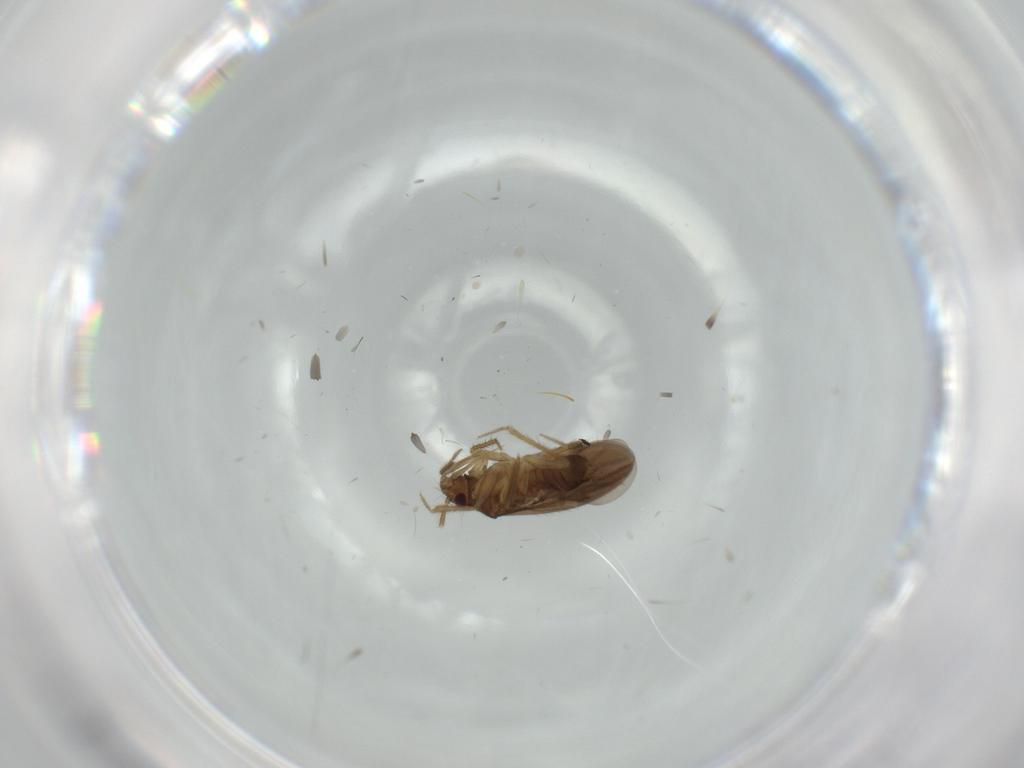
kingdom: Animalia
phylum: Arthropoda
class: Insecta
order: Hemiptera
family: Ceratocombidae
